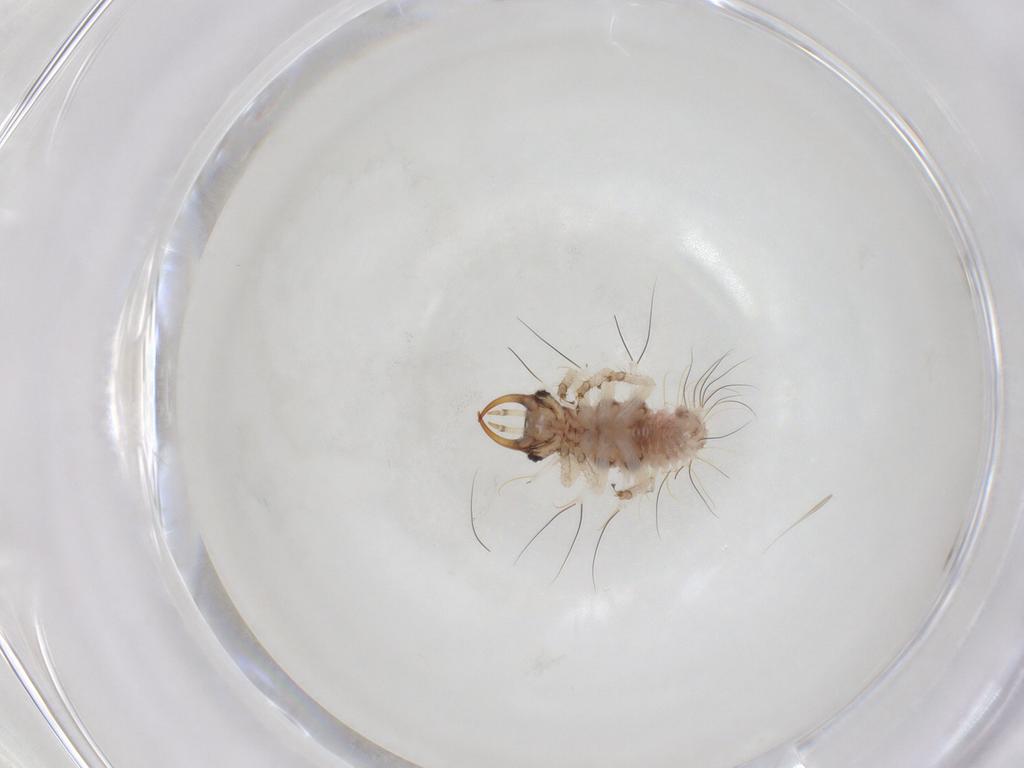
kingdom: Animalia
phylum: Arthropoda
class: Insecta
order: Neuroptera
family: Chrysopidae
